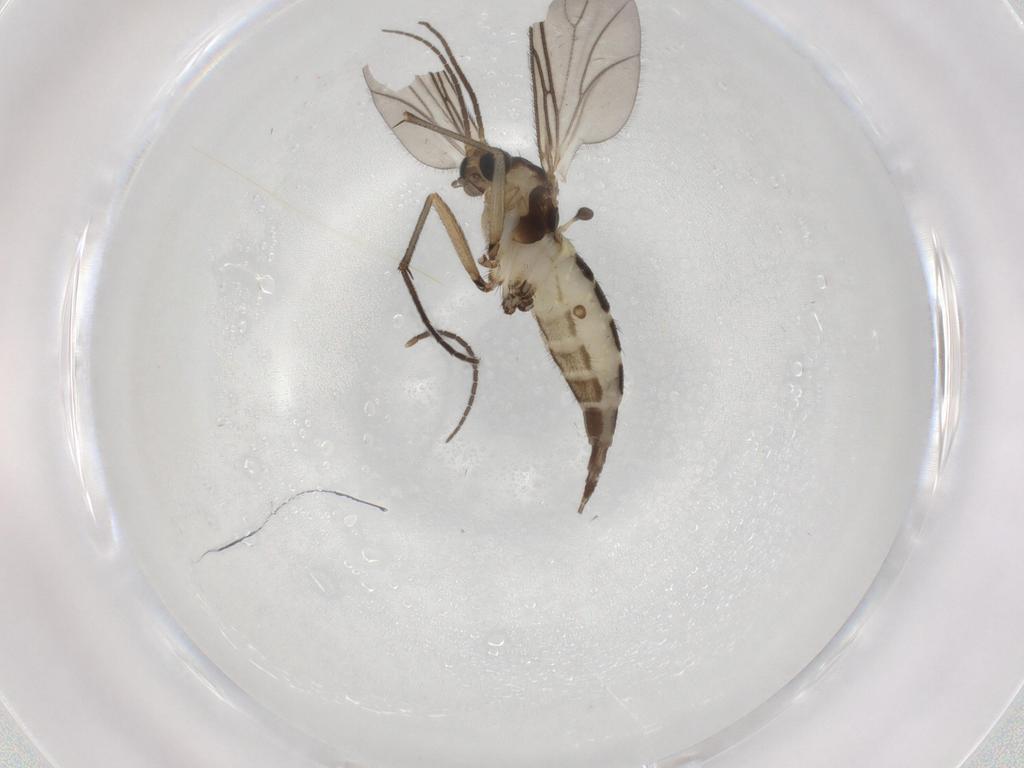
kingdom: Animalia
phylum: Arthropoda
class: Insecta
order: Diptera
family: Sciaridae
